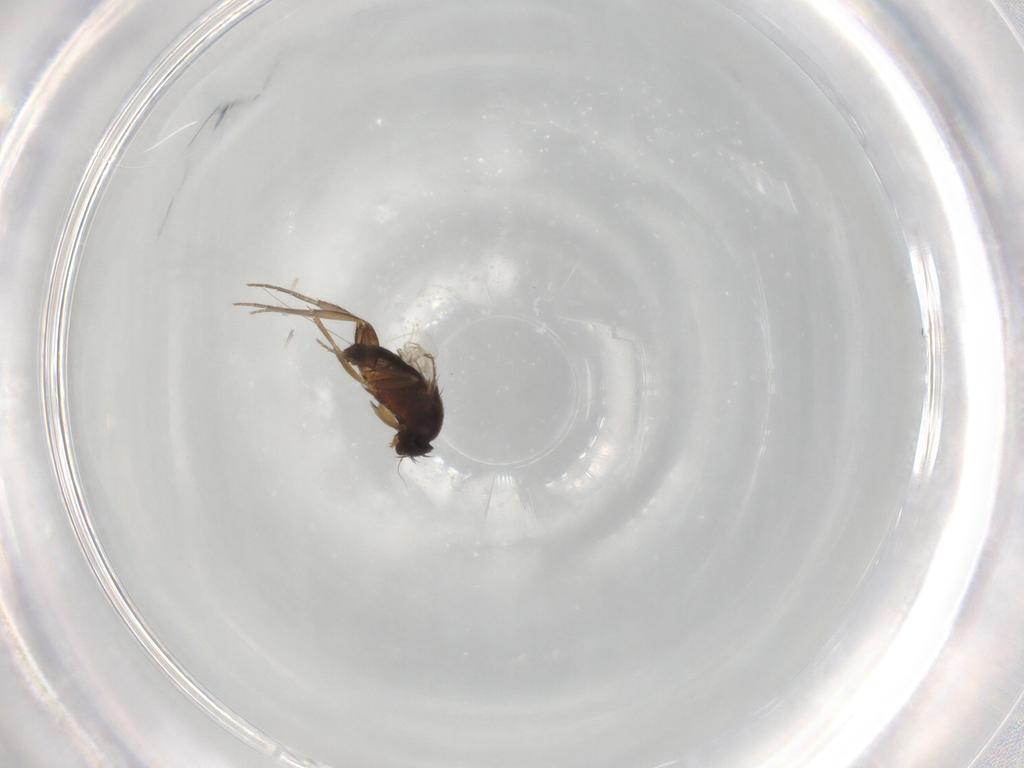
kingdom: Animalia
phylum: Arthropoda
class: Insecta
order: Diptera
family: Phoridae
